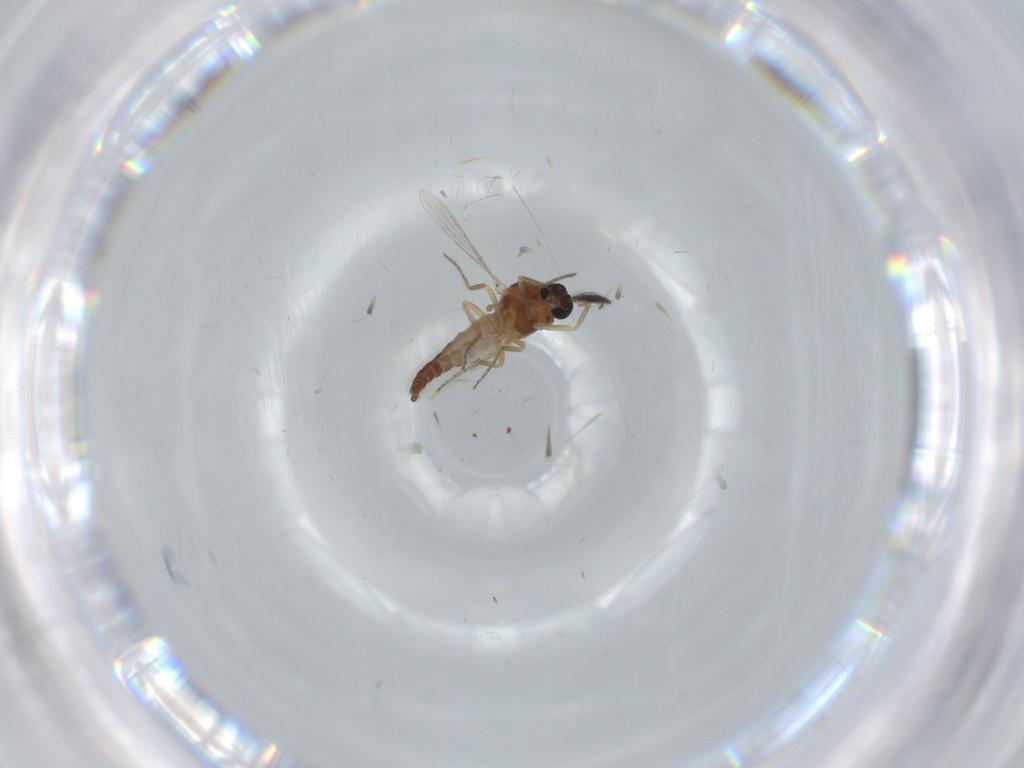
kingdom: Animalia
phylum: Arthropoda
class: Insecta
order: Diptera
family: Ceratopogonidae
